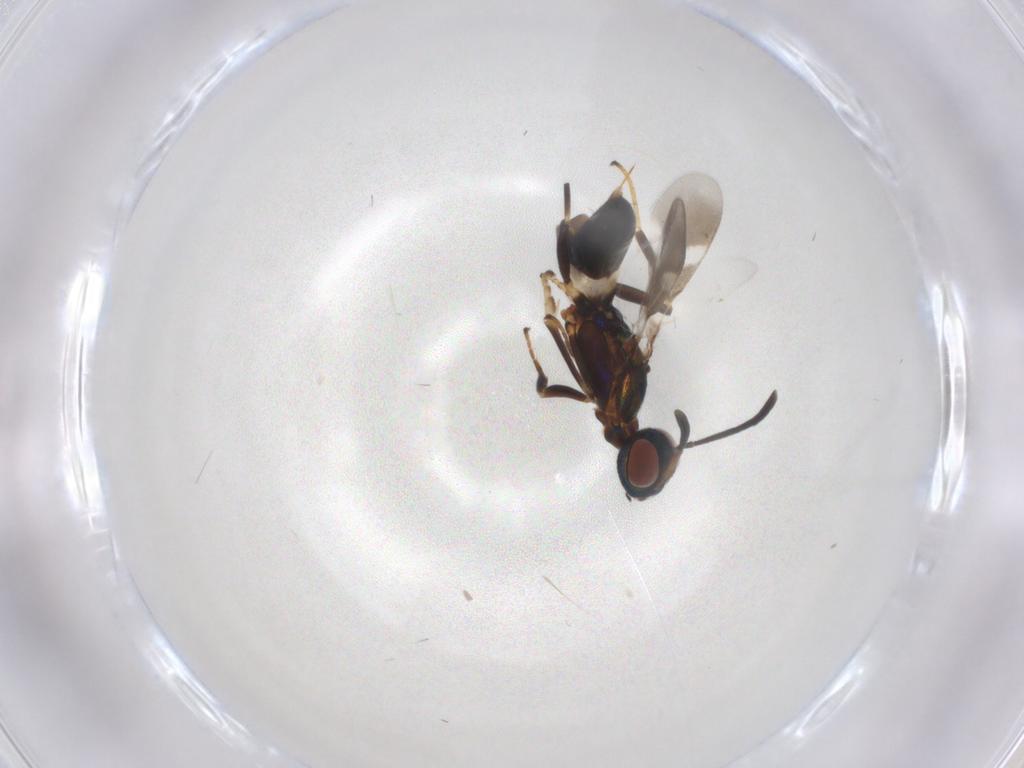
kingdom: Animalia
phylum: Arthropoda
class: Insecta
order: Hymenoptera
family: Eupelmidae
